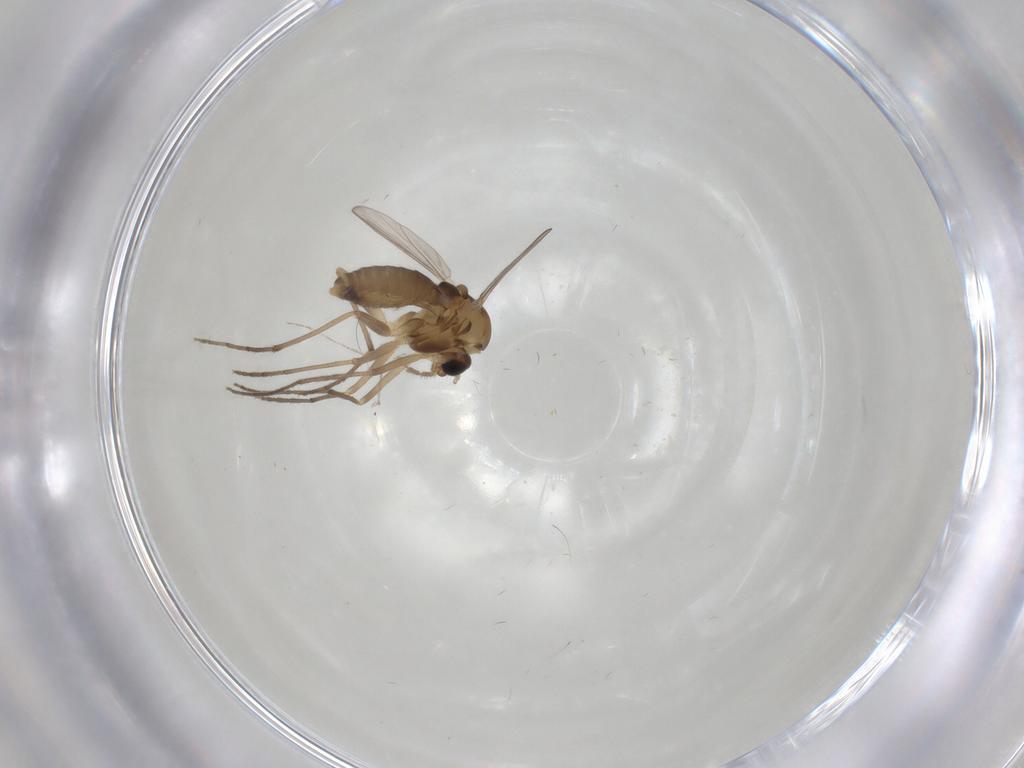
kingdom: Animalia
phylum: Arthropoda
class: Insecta
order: Diptera
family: Chironomidae
